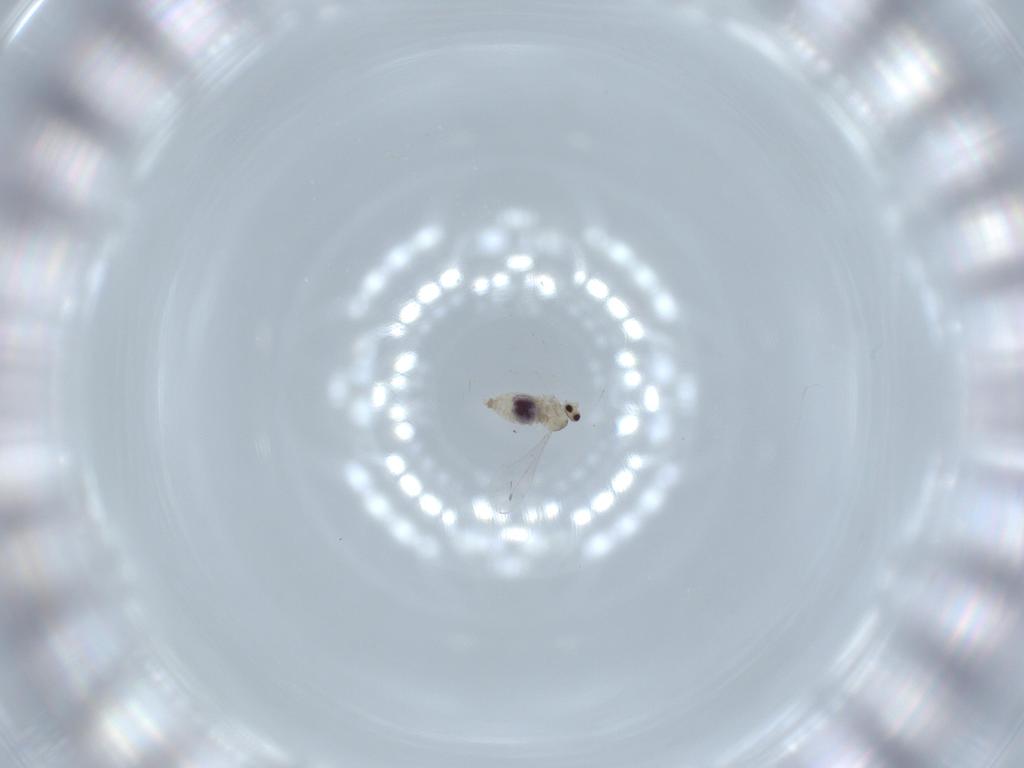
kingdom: Animalia
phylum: Arthropoda
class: Insecta
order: Diptera
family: Cecidomyiidae
